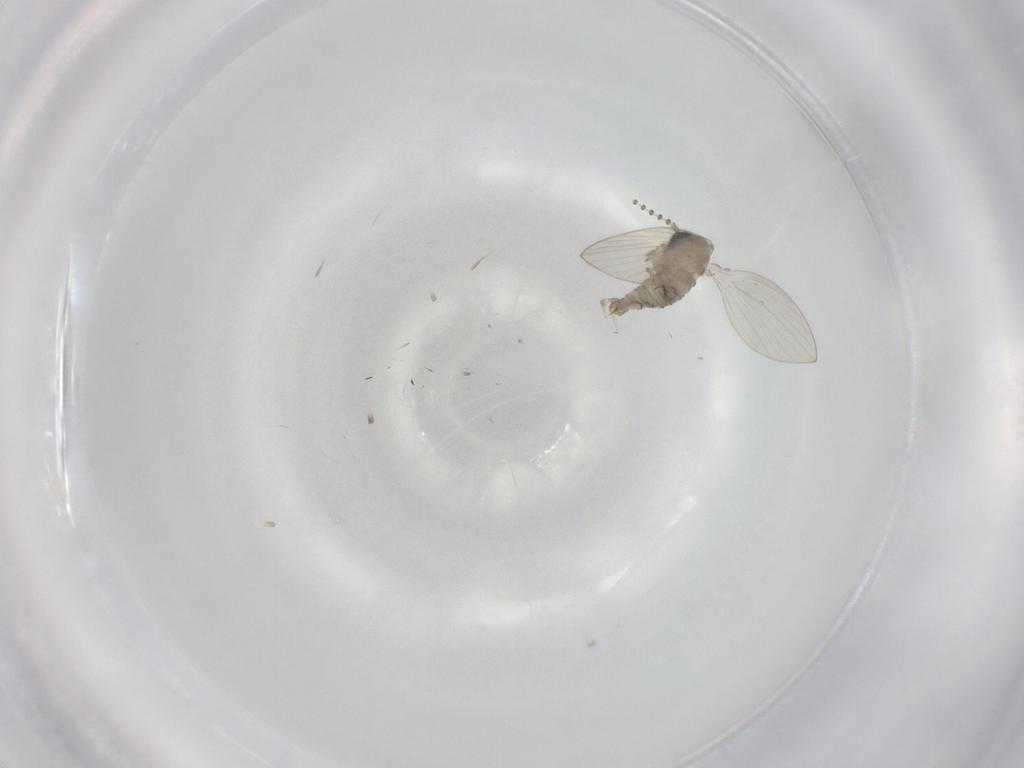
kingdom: Animalia
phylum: Arthropoda
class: Insecta
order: Diptera
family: Psychodidae
